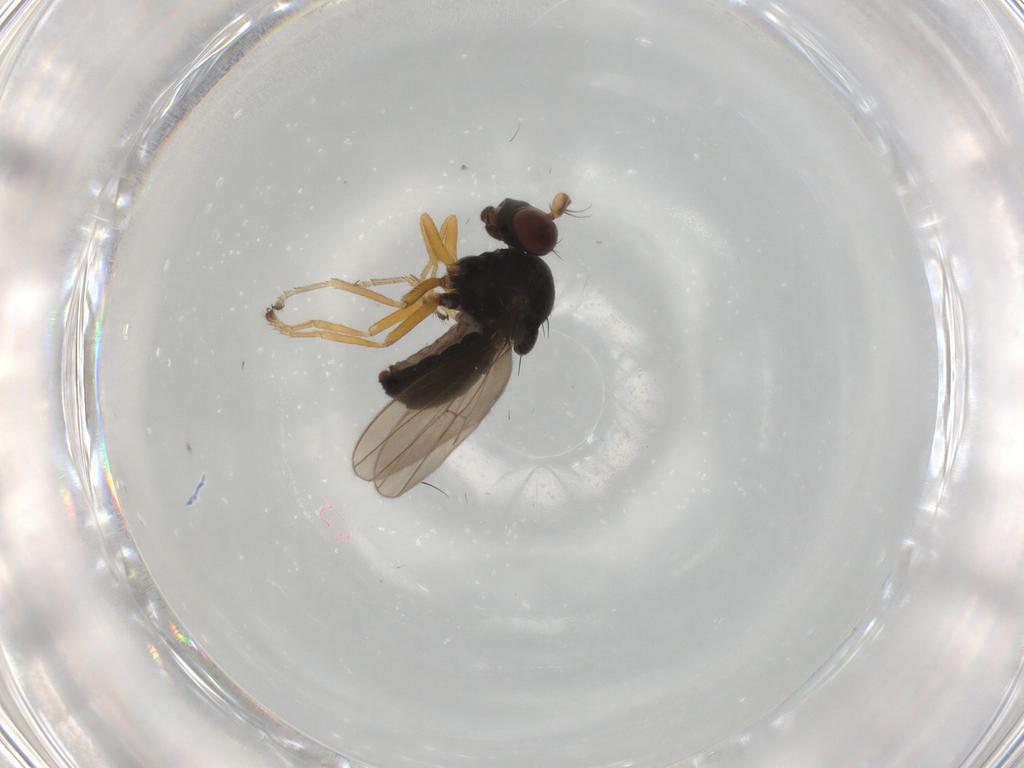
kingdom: Animalia
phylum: Arthropoda
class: Insecta
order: Diptera
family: Ephydridae
